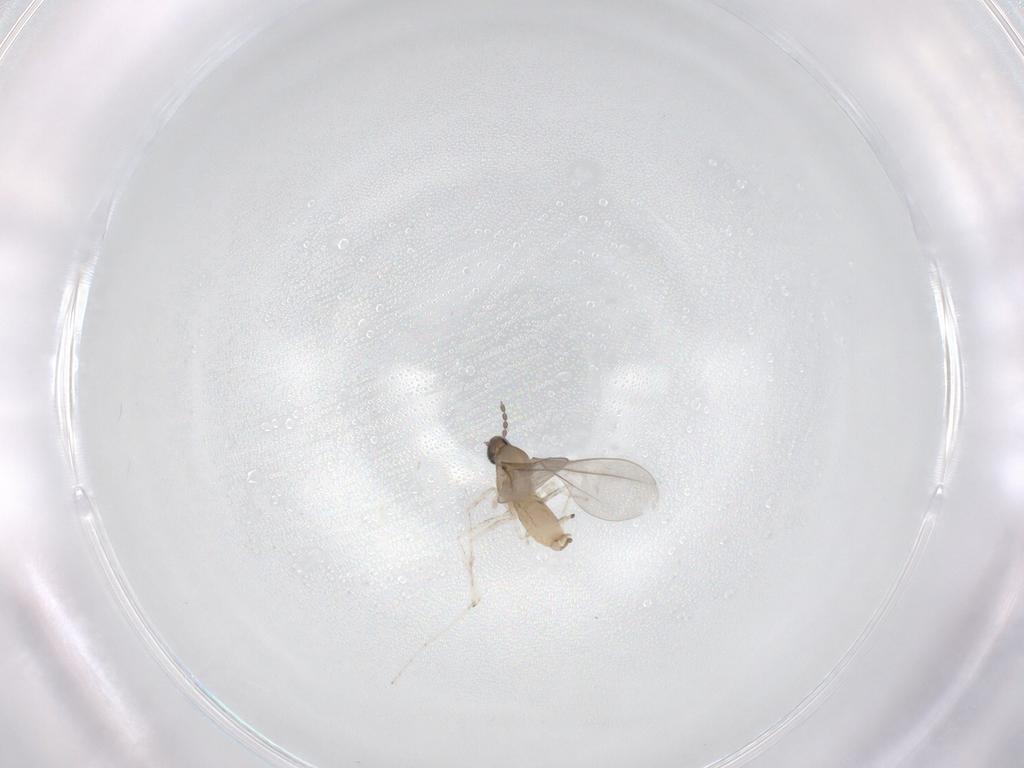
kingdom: Animalia
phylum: Arthropoda
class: Insecta
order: Diptera
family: Cecidomyiidae
